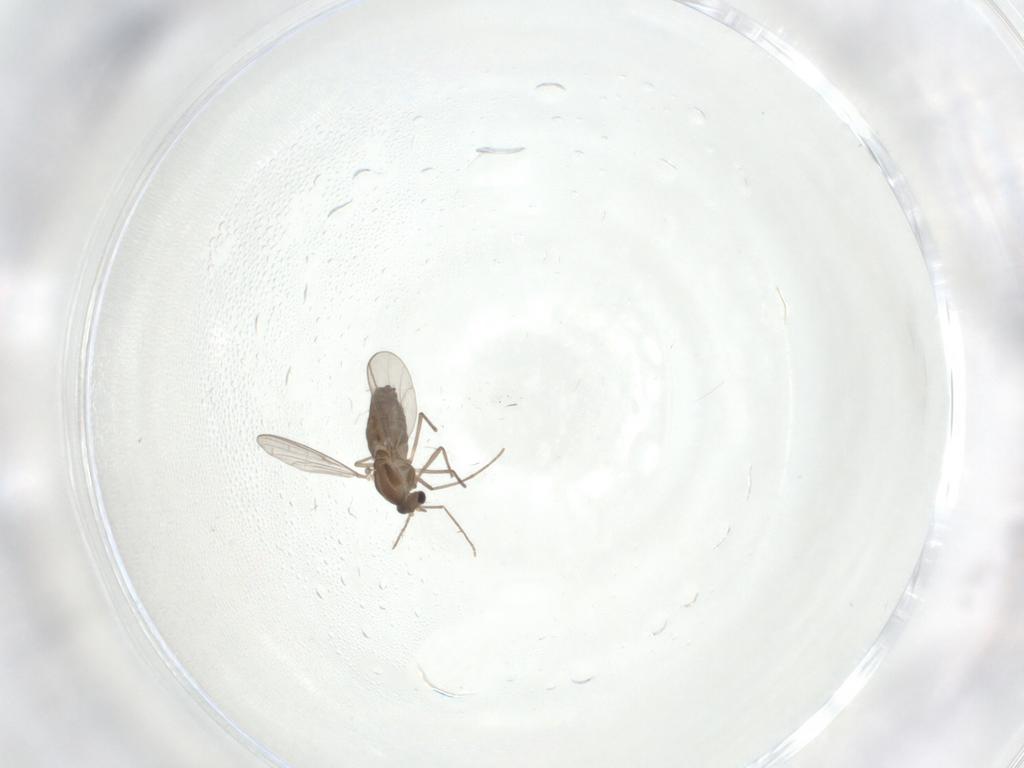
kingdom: Animalia
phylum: Arthropoda
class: Insecta
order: Diptera
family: Chironomidae
